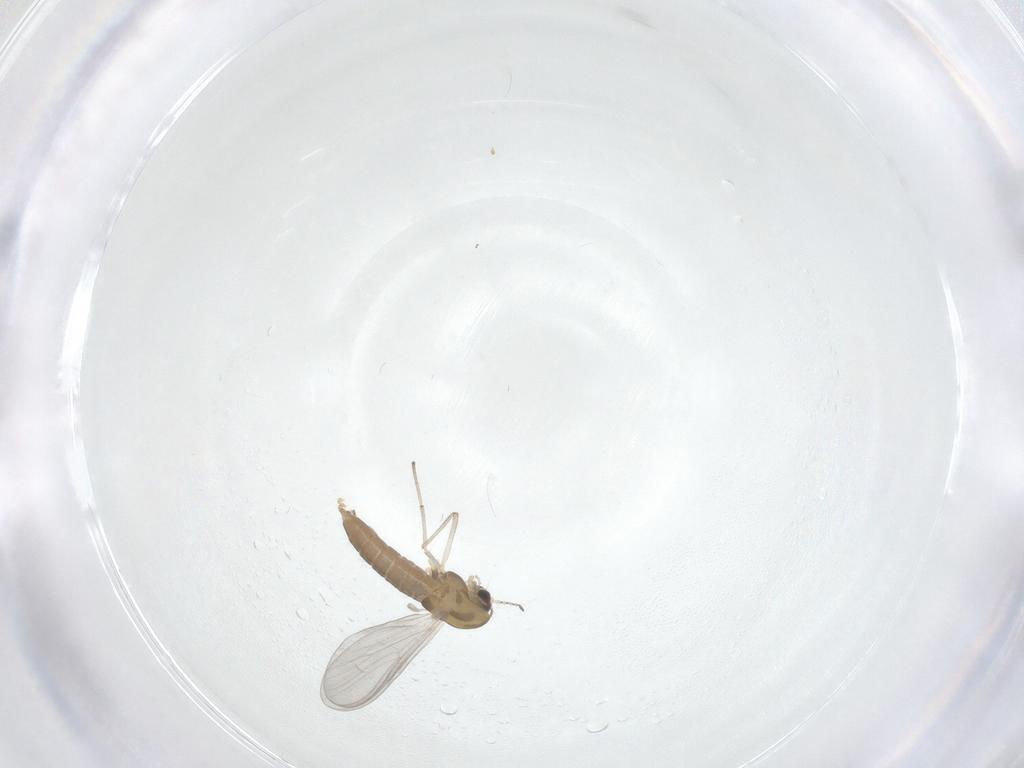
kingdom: Animalia
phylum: Arthropoda
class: Insecta
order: Diptera
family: Chironomidae
